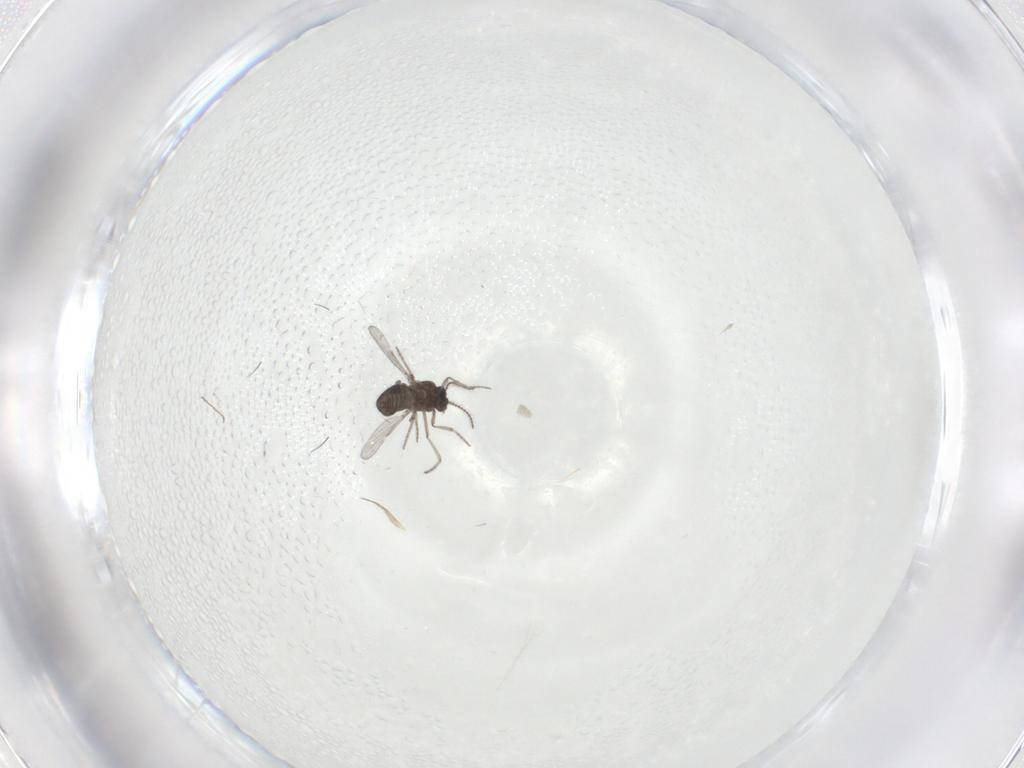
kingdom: Animalia
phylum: Arthropoda
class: Insecta
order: Diptera
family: Ceratopogonidae
